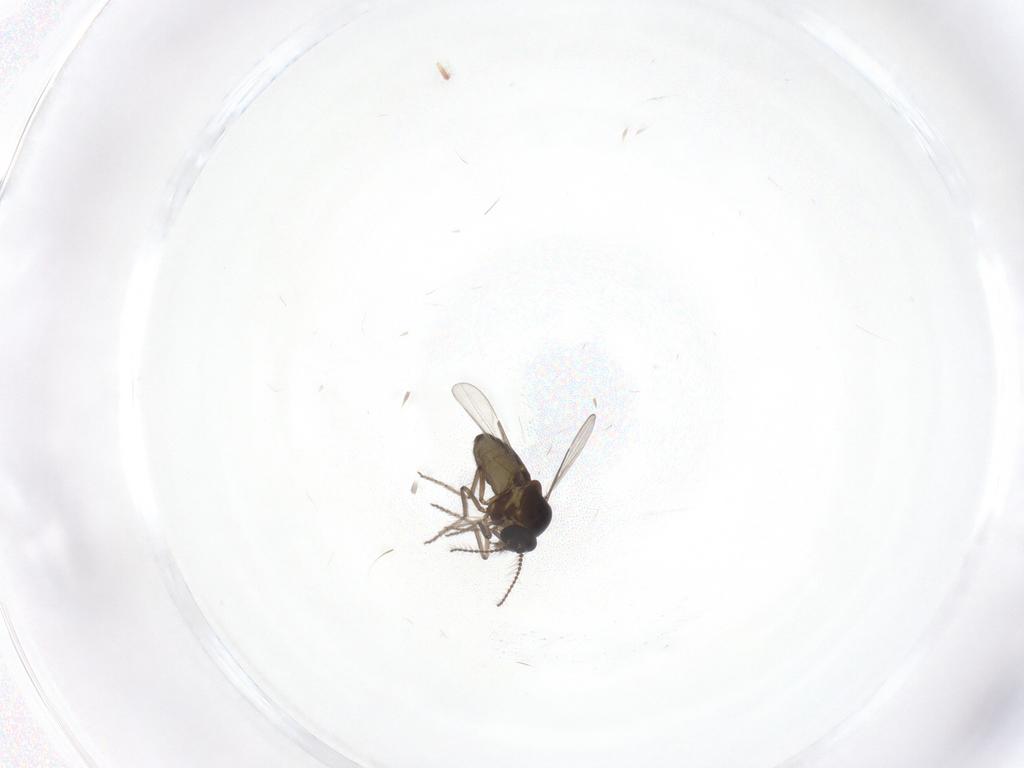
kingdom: Animalia
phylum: Arthropoda
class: Insecta
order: Diptera
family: Ceratopogonidae
